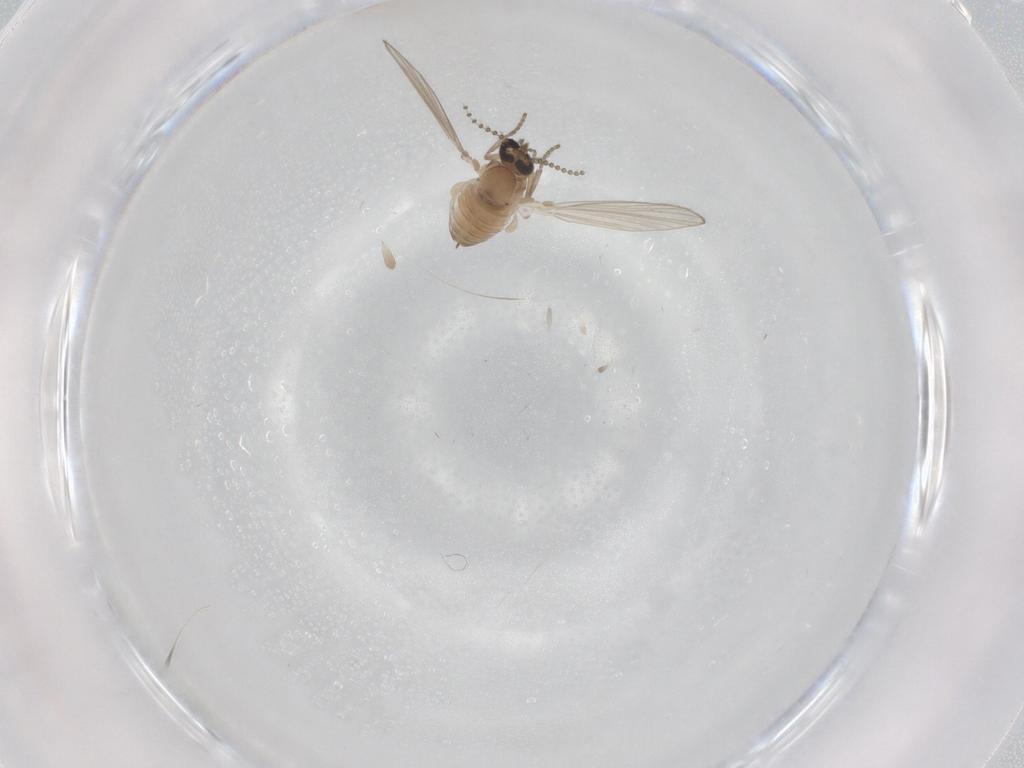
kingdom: Animalia
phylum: Arthropoda
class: Insecta
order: Diptera
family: Psychodidae
